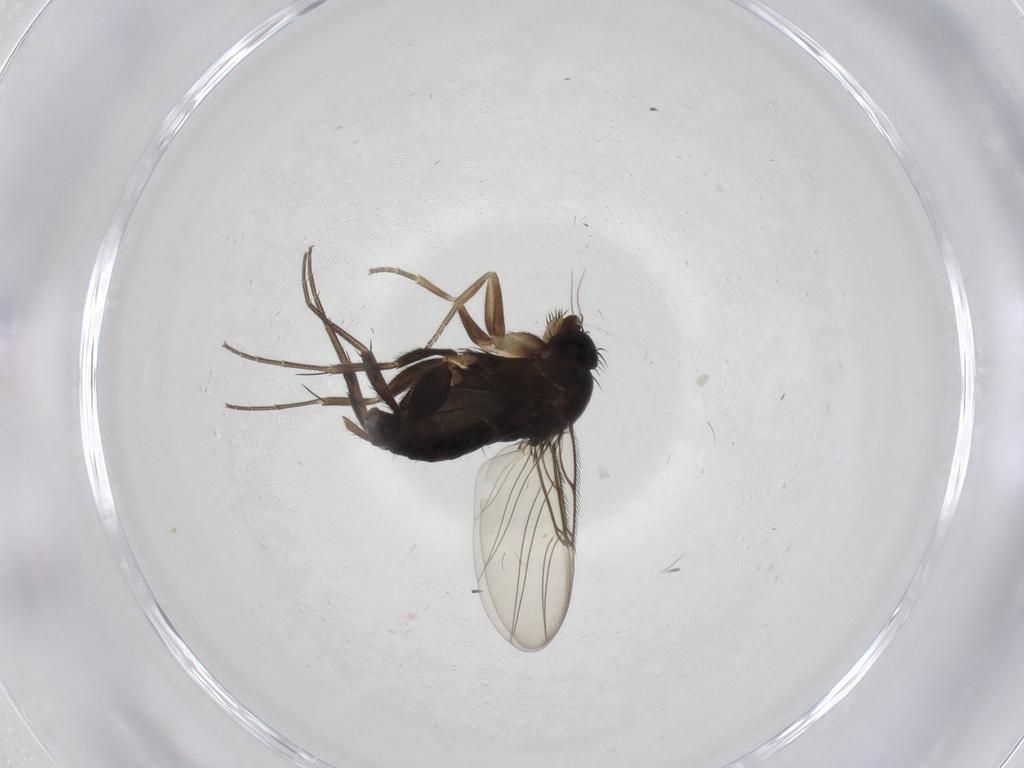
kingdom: Animalia
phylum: Arthropoda
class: Insecta
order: Diptera
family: Phoridae
